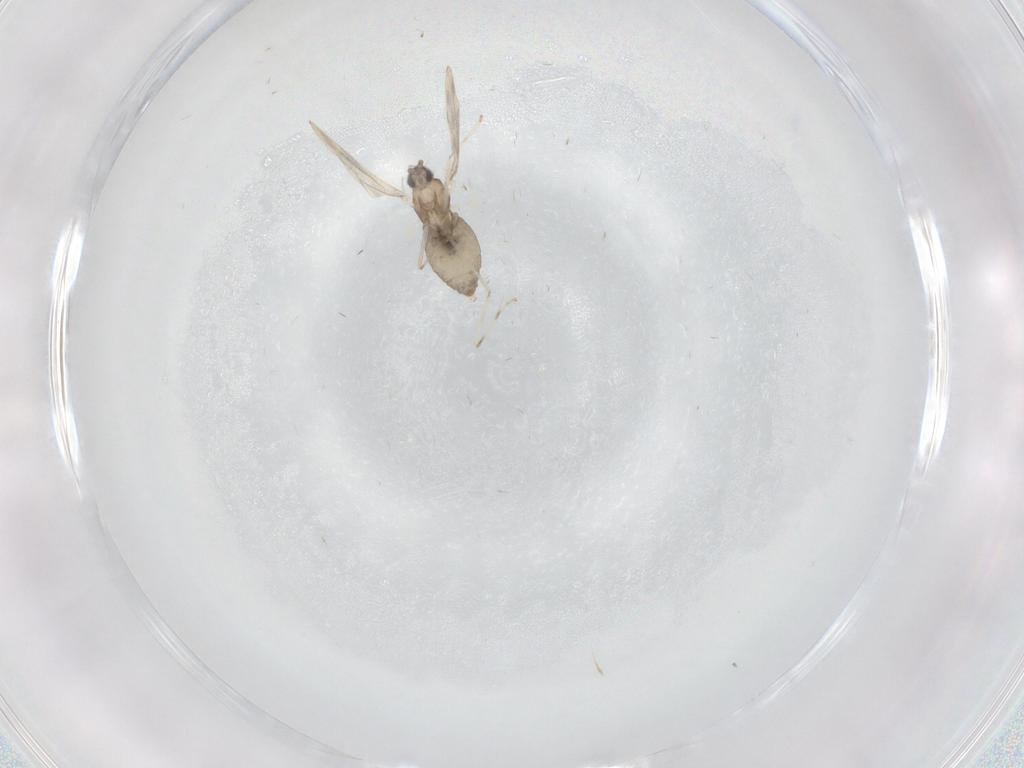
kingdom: Animalia
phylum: Arthropoda
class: Insecta
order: Diptera
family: Cecidomyiidae
